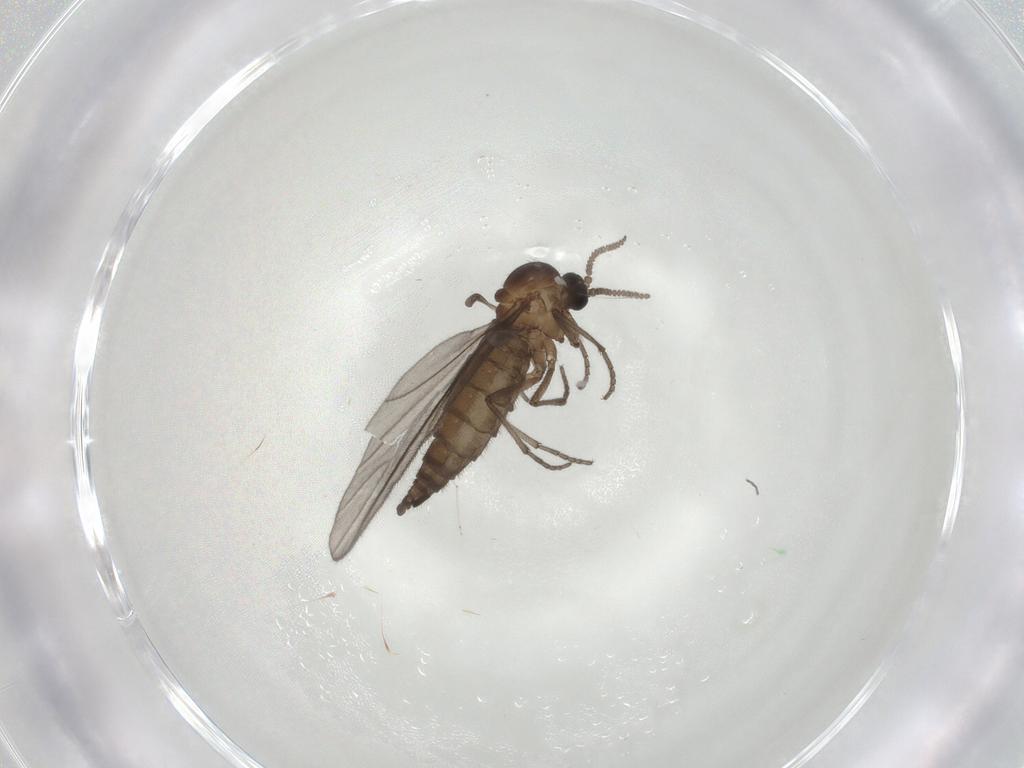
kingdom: Animalia
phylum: Arthropoda
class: Insecta
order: Diptera
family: Sciaridae
